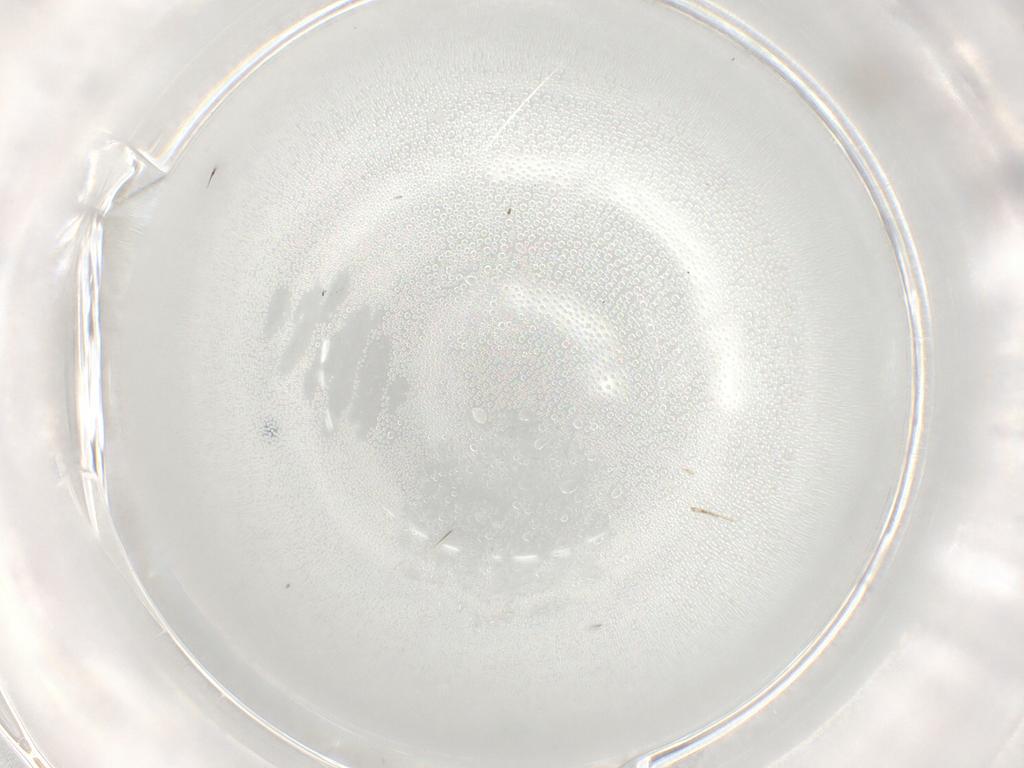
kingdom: Animalia
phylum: Arthropoda
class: Insecta
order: Diptera
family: Phoridae
